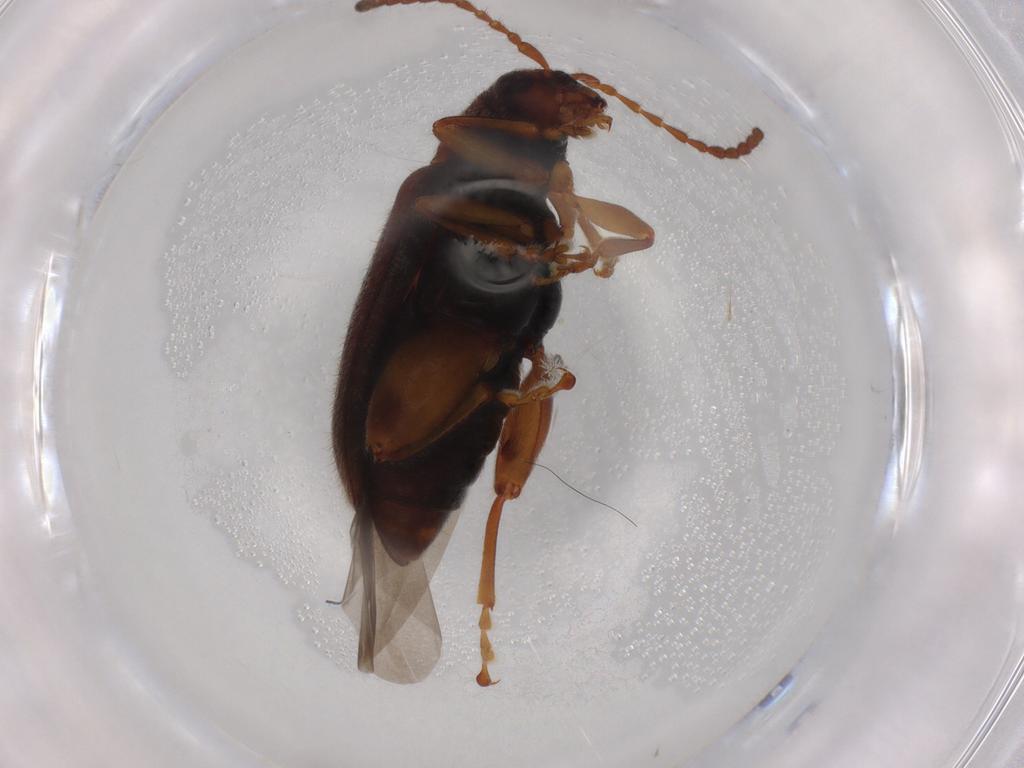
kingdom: Animalia
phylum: Arthropoda
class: Insecta
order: Coleoptera
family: Chrysomelidae
